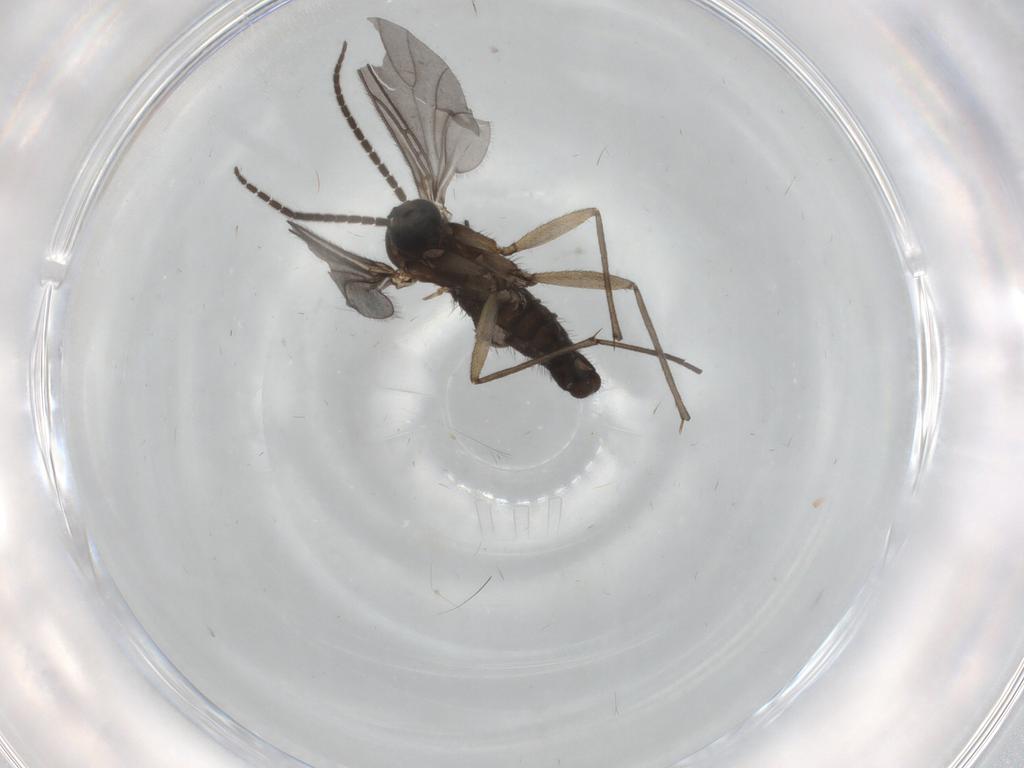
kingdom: Animalia
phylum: Arthropoda
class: Insecta
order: Diptera
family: Sciaridae
